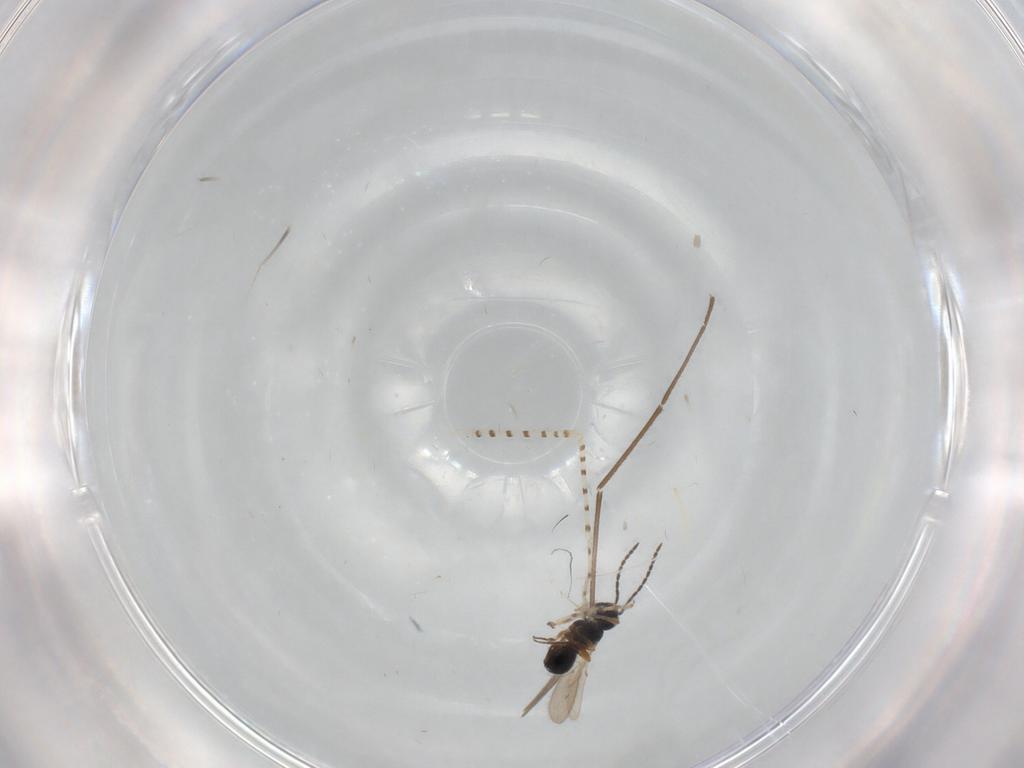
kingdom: Animalia
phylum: Arthropoda
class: Insecta
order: Hymenoptera
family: Scelionidae
